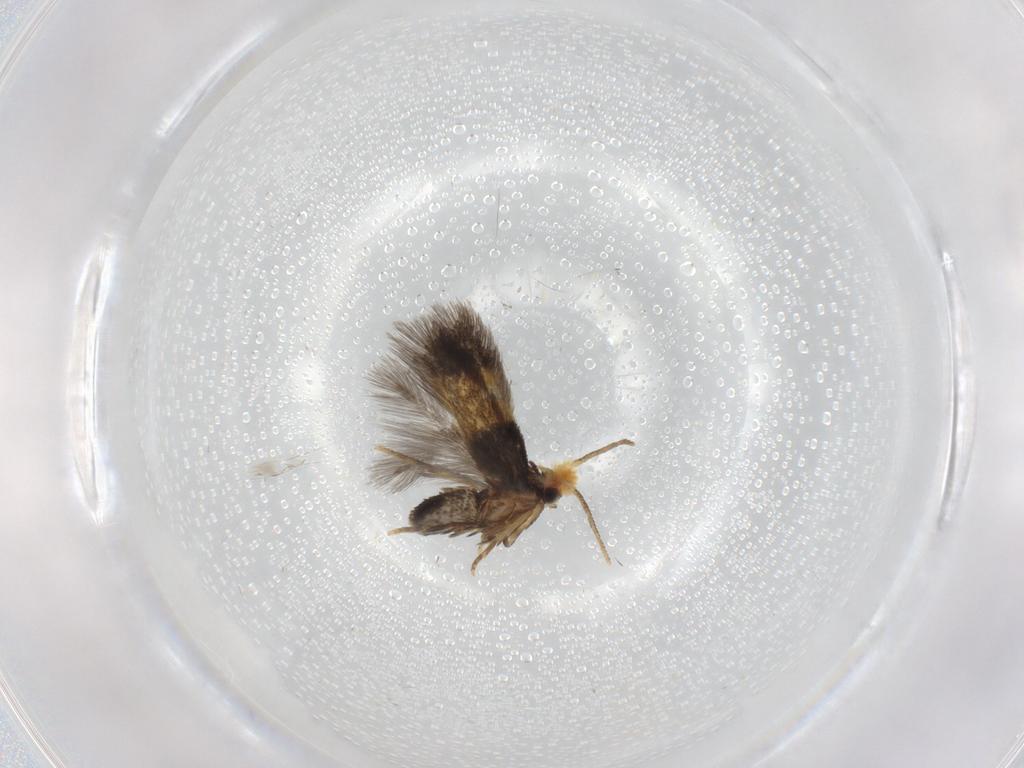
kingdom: Animalia
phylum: Arthropoda
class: Insecta
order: Lepidoptera
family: Nepticulidae
